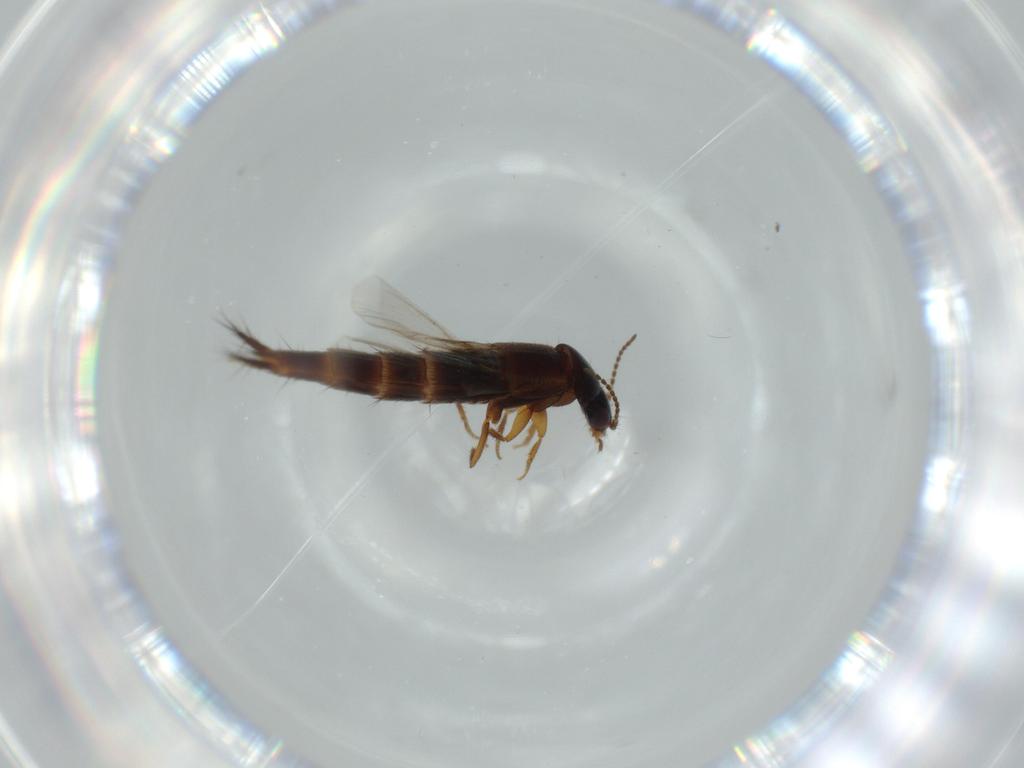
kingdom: Animalia
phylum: Arthropoda
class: Insecta
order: Coleoptera
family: Staphylinidae
